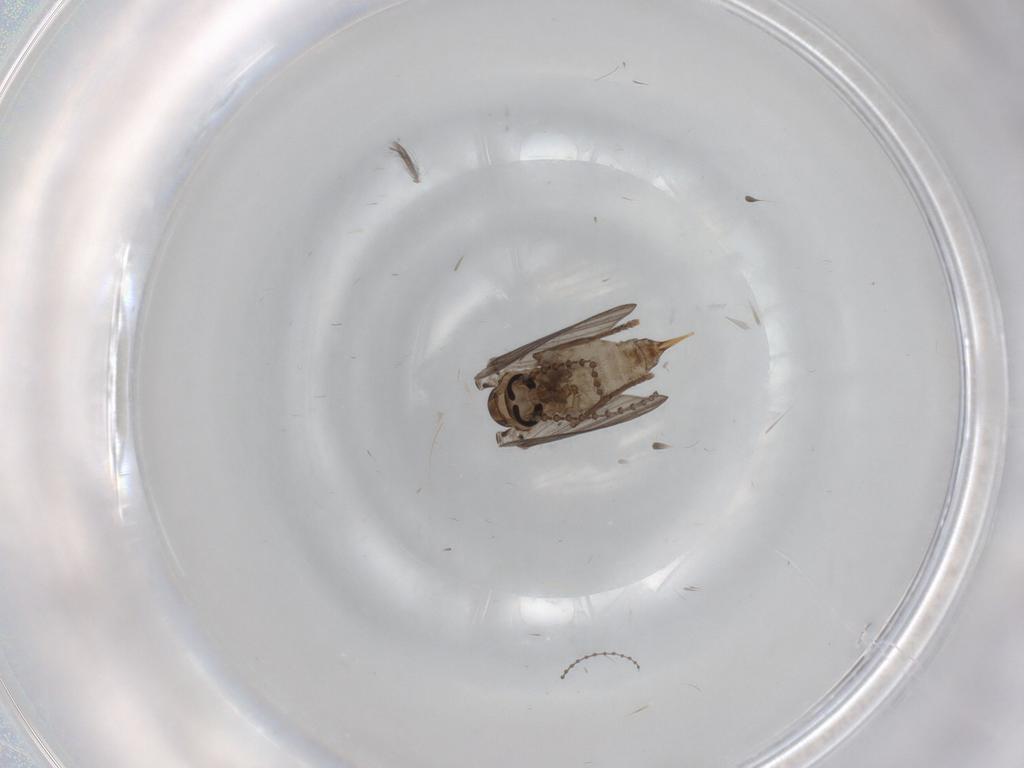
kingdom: Animalia
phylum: Arthropoda
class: Insecta
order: Diptera
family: Psychodidae
